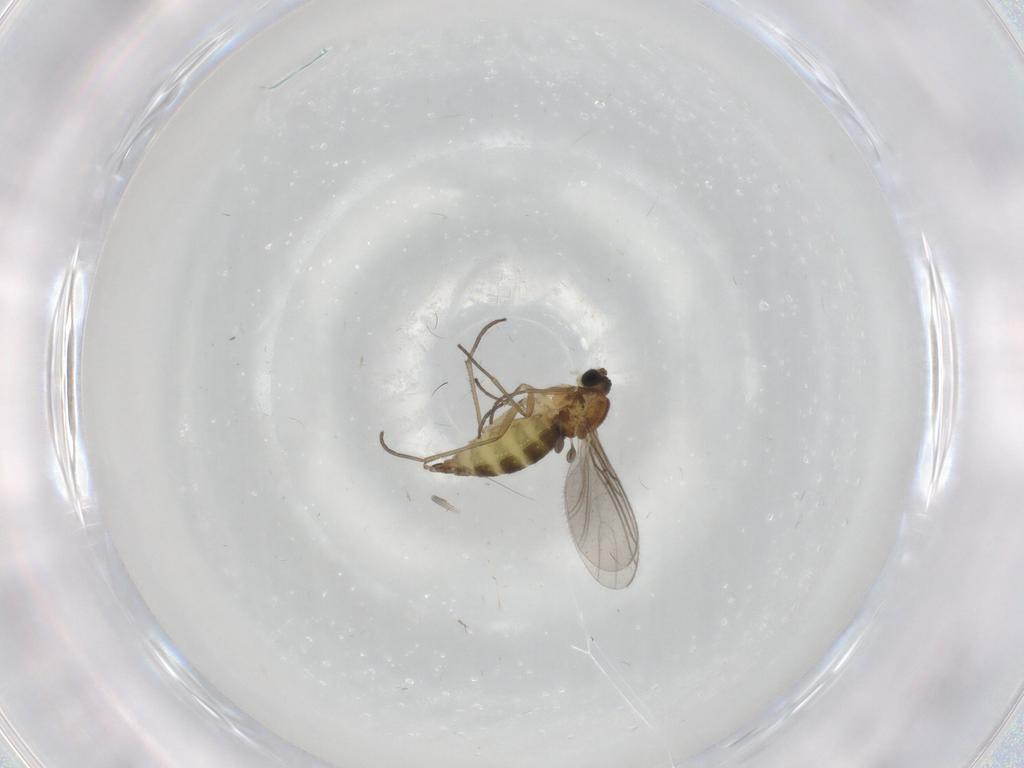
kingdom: Animalia
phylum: Arthropoda
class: Insecta
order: Diptera
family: Sciaridae
